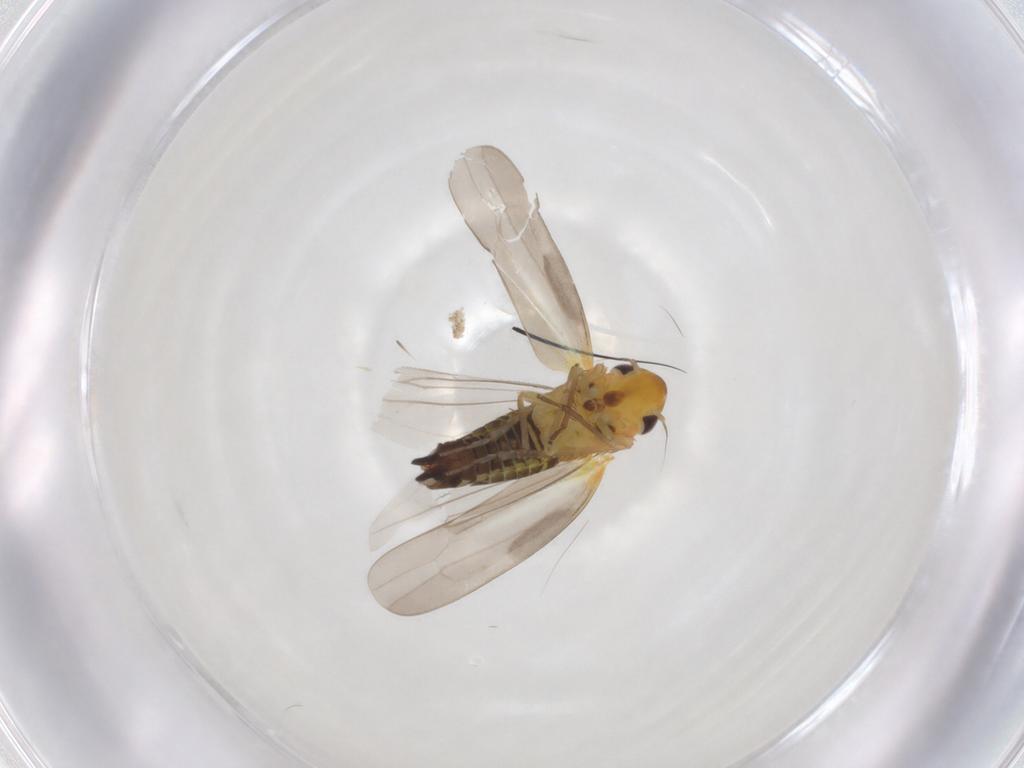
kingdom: Animalia
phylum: Arthropoda
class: Insecta
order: Hemiptera
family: Cicadellidae
